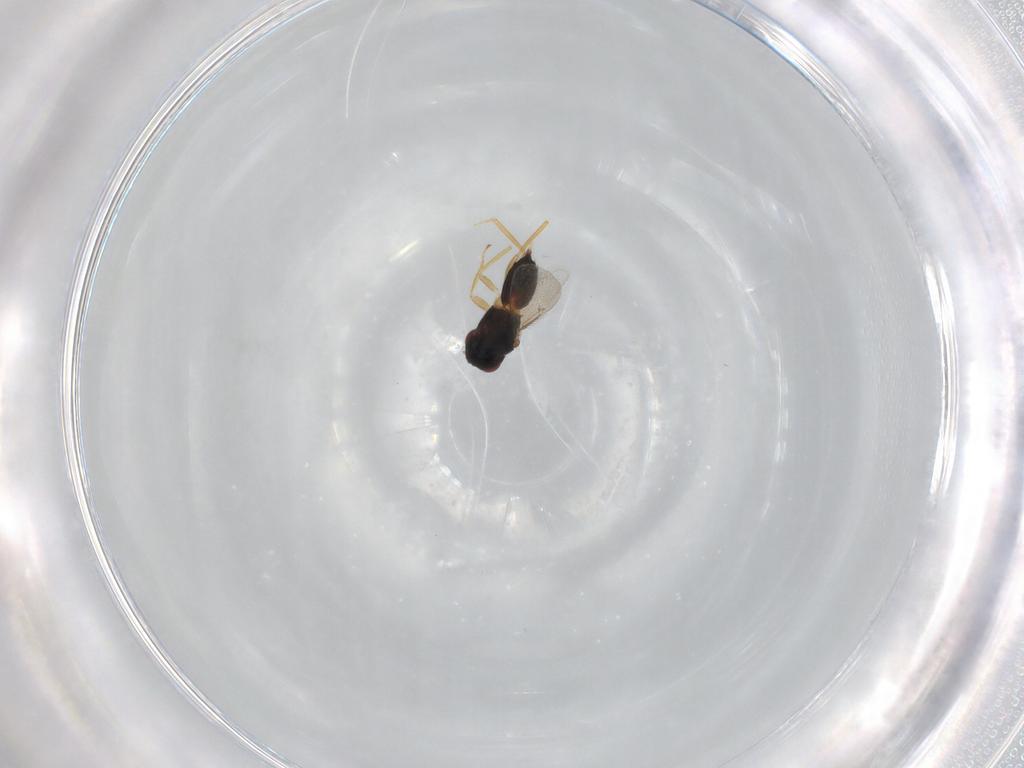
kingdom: Animalia
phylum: Arthropoda
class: Insecta
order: Hymenoptera
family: Eulophidae
